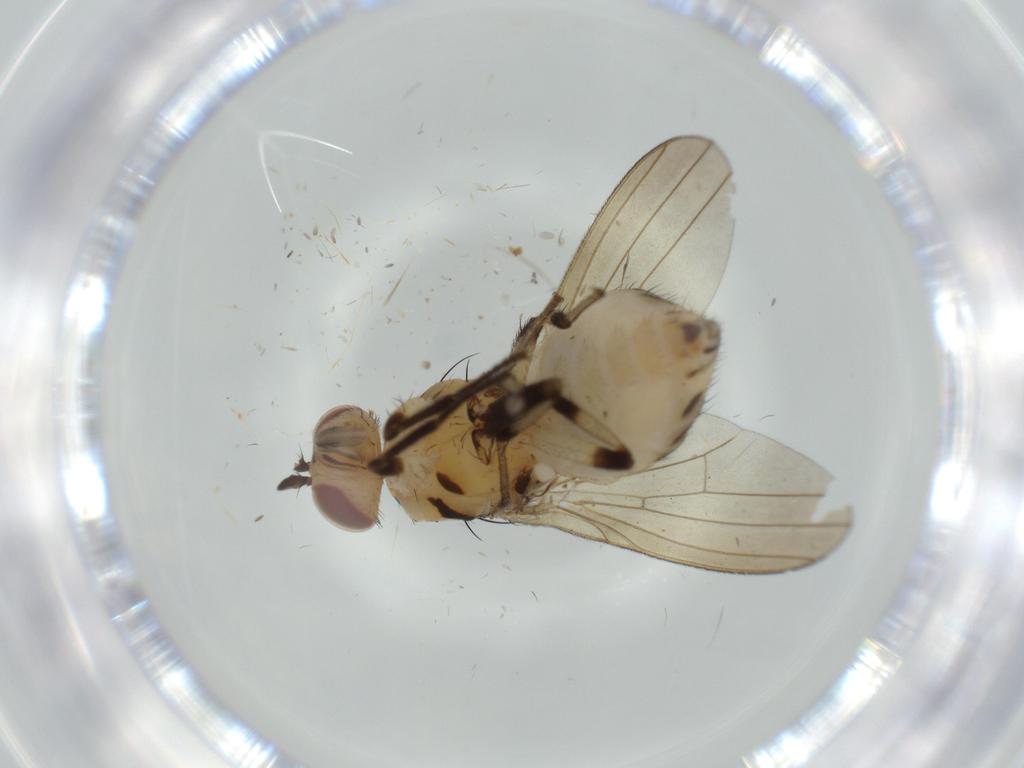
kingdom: Animalia
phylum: Arthropoda
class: Insecta
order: Diptera
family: Lauxaniidae
